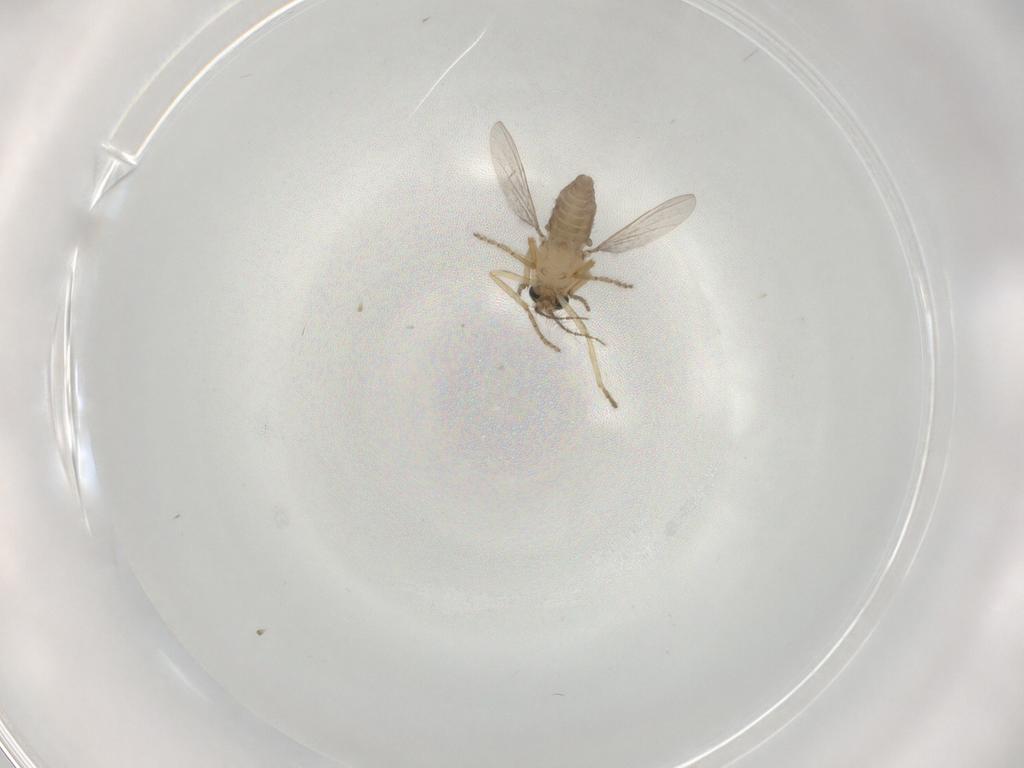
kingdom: Animalia
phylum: Arthropoda
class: Insecta
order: Diptera
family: Ceratopogonidae
